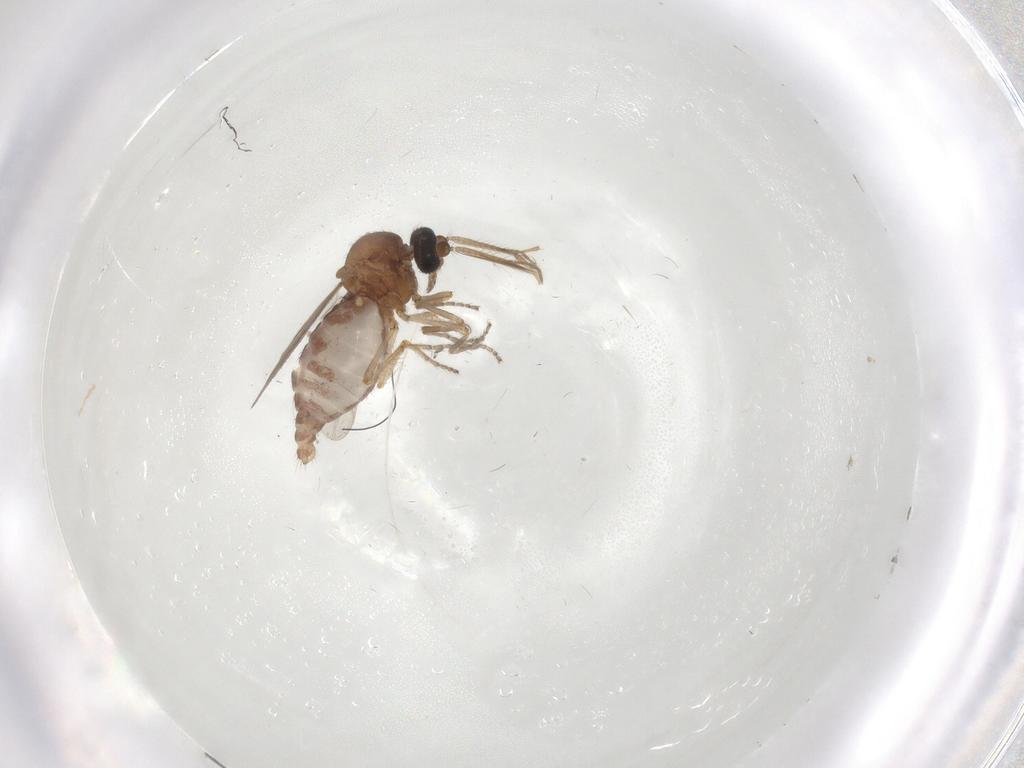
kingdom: Animalia
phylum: Arthropoda
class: Insecta
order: Diptera
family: Ceratopogonidae
